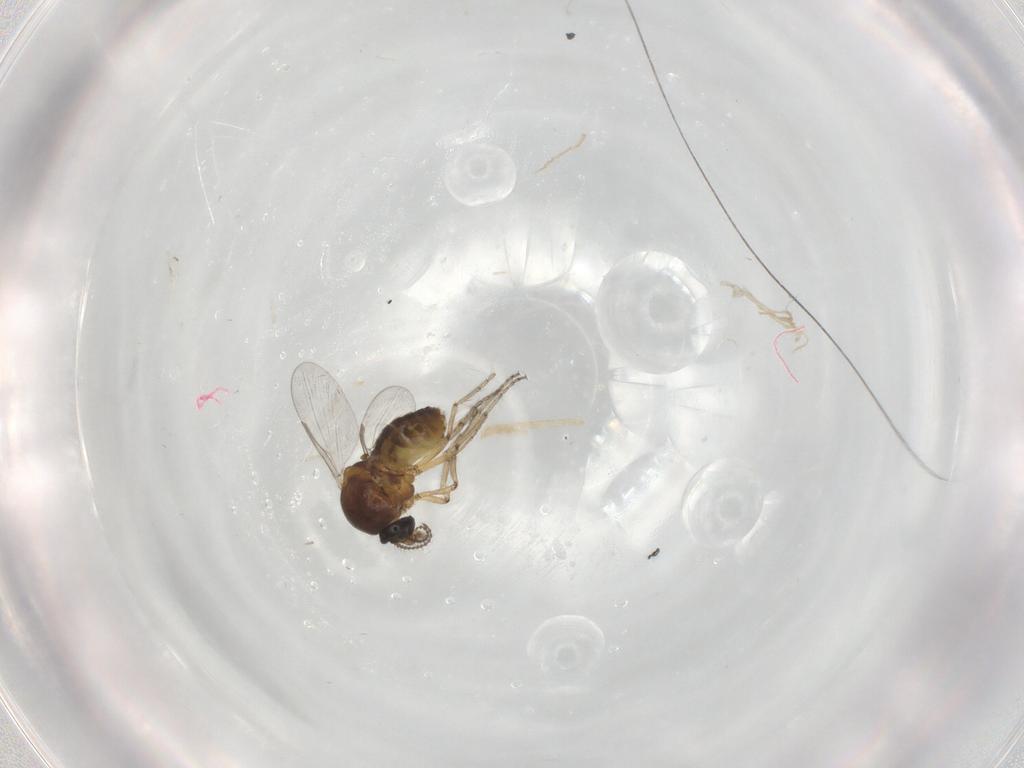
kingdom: Animalia
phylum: Arthropoda
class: Insecta
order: Diptera
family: Ceratopogonidae
